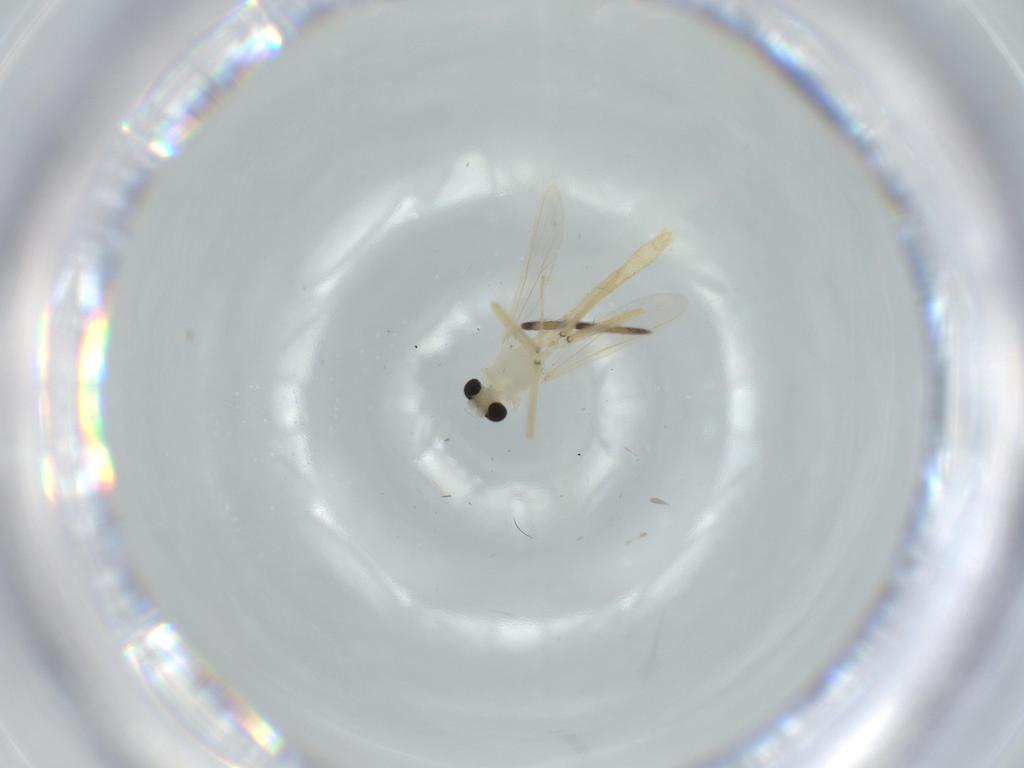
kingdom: Animalia
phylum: Arthropoda
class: Insecta
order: Diptera
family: Chironomidae
